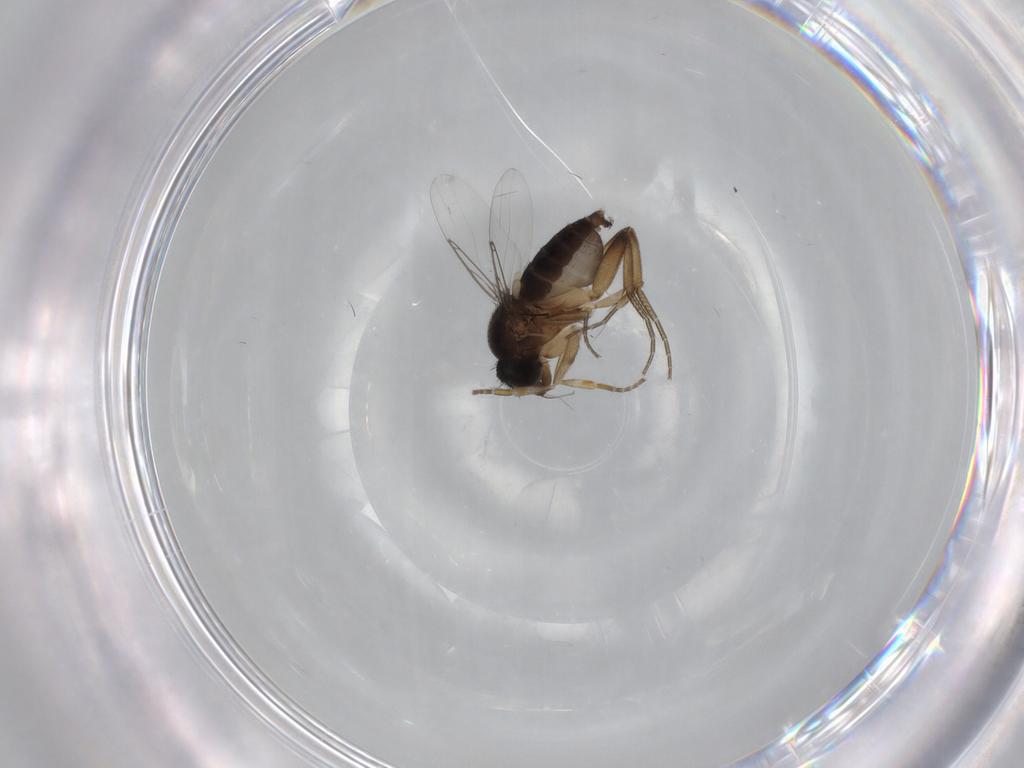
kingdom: Animalia
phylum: Arthropoda
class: Insecta
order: Diptera
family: Phoridae
